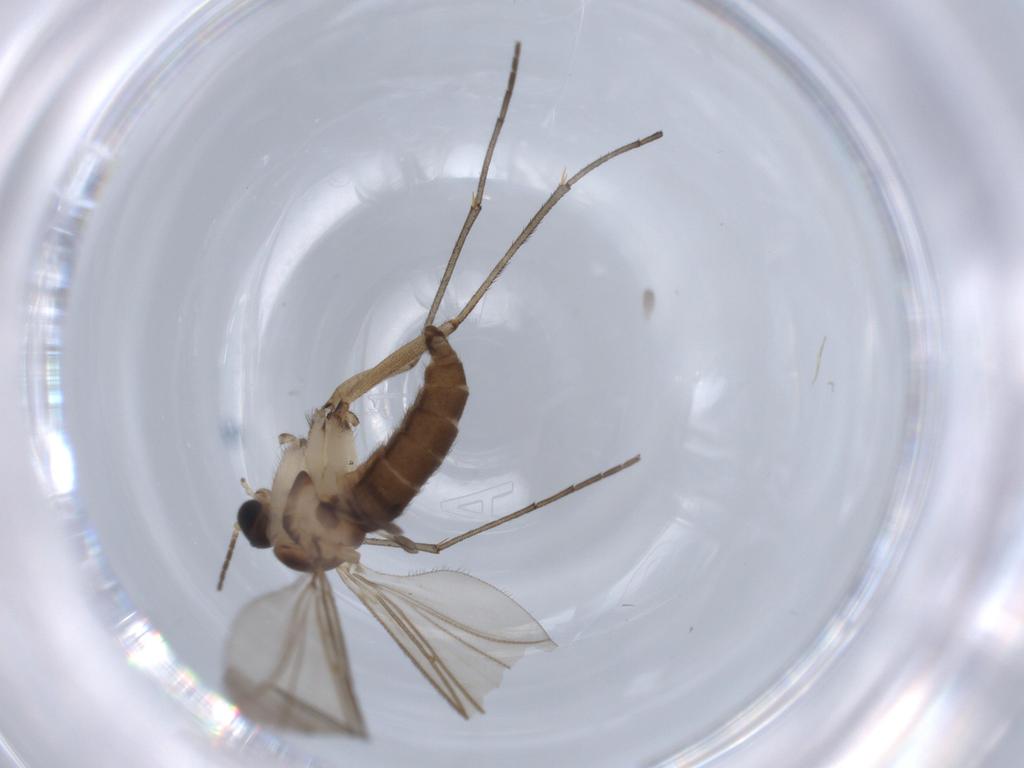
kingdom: Animalia
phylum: Arthropoda
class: Insecta
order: Diptera
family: Sciaridae
